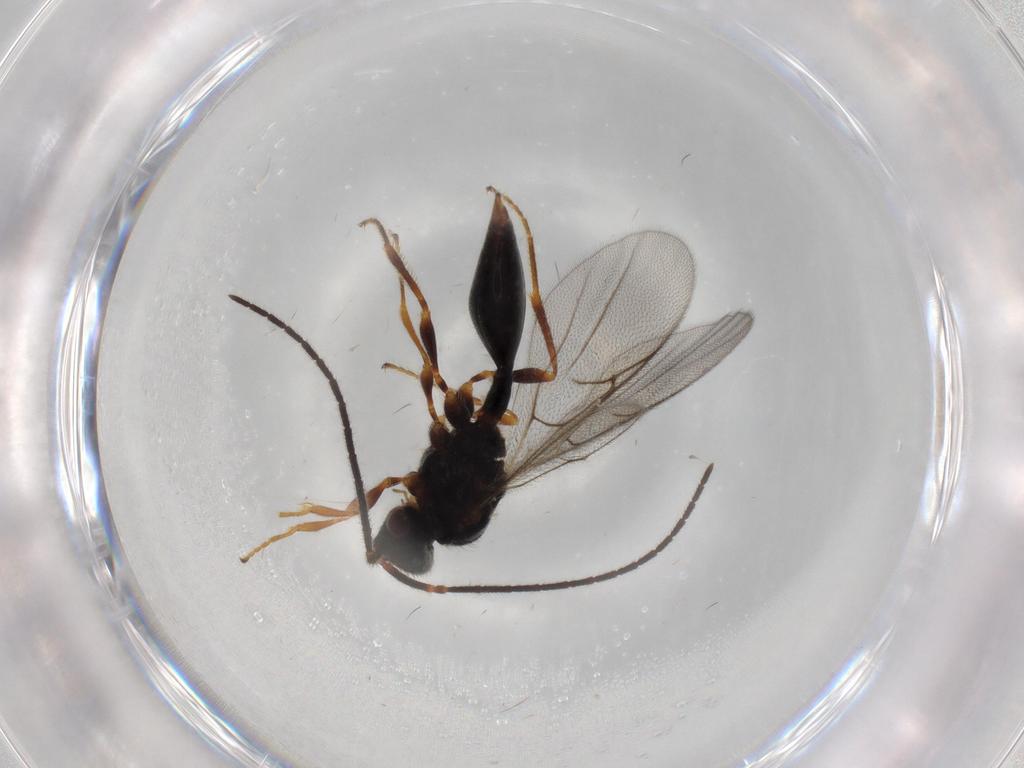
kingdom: Animalia
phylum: Arthropoda
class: Insecta
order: Hymenoptera
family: Diapriidae
